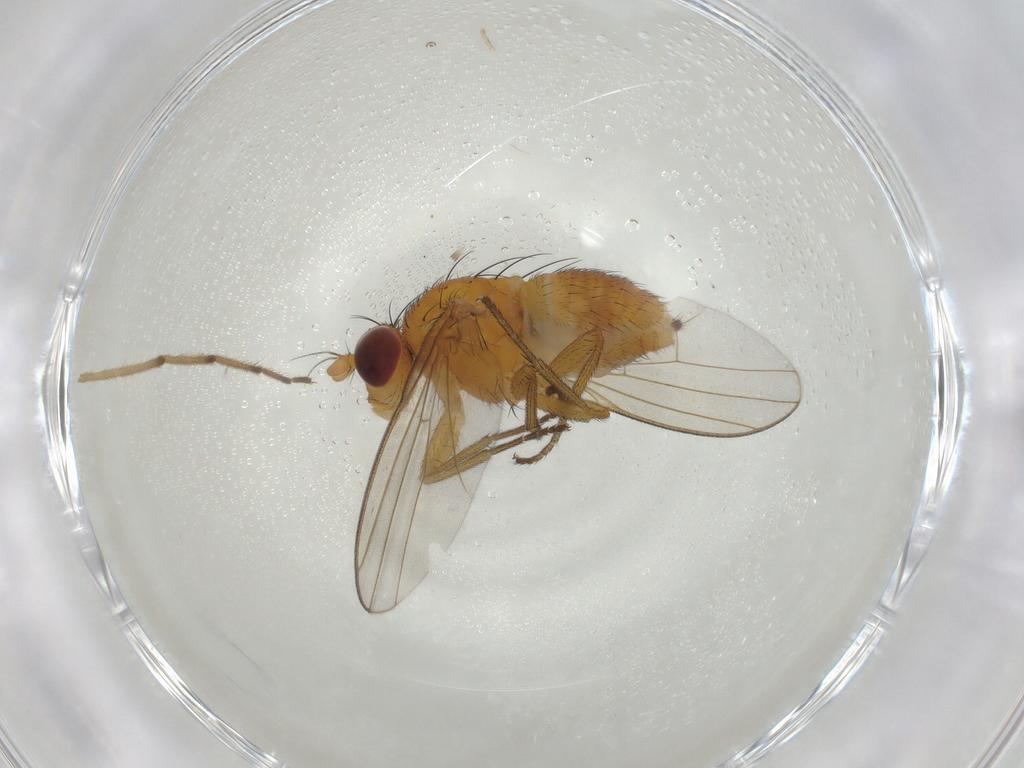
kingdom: Animalia
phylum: Arthropoda
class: Insecta
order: Diptera
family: Lauxaniidae
